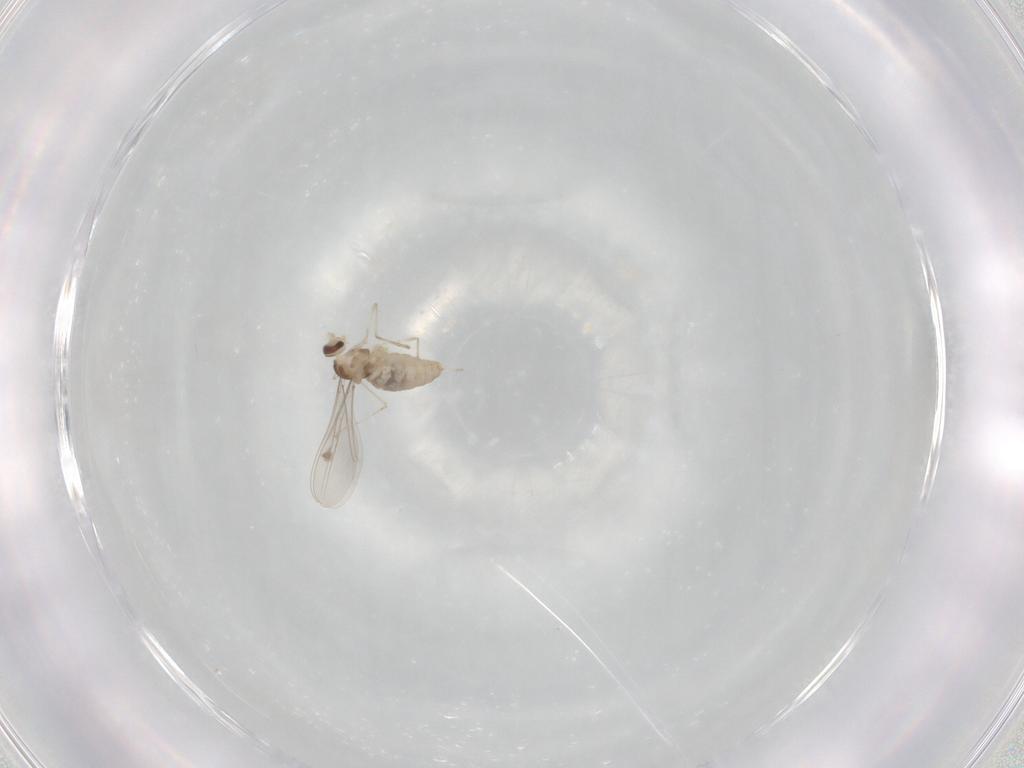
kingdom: Animalia
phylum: Arthropoda
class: Insecta
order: Diptera
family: Cecidomyiidae
